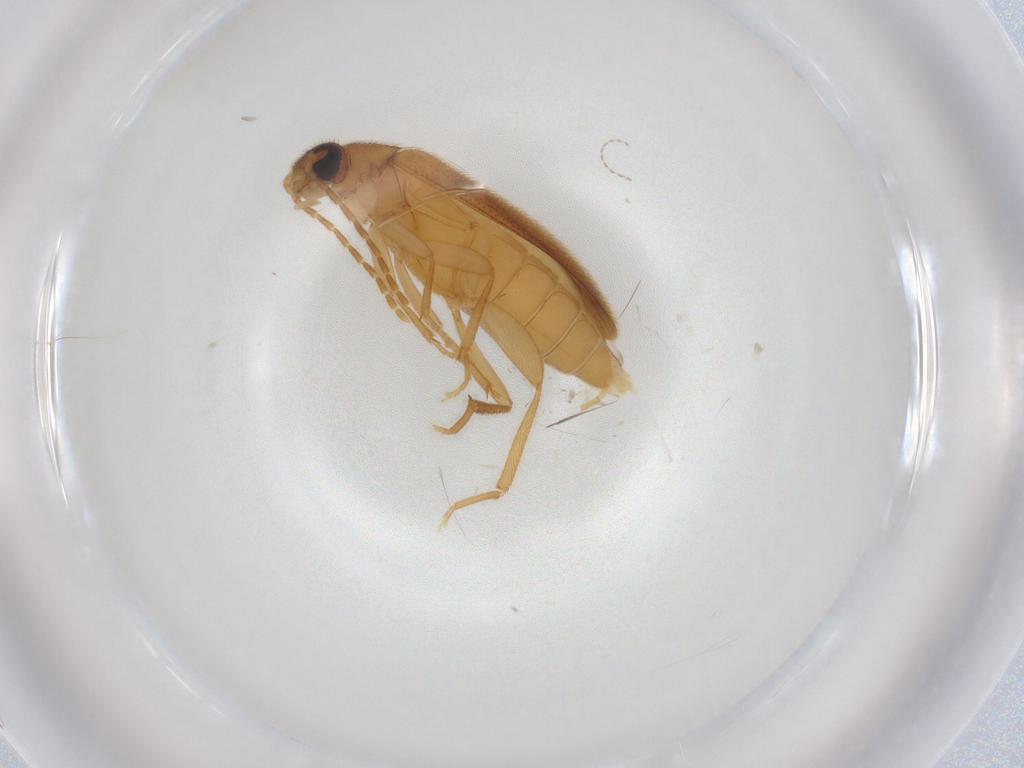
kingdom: Animalia
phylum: Arthropoda
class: Insecta
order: Coleoptera
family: Scraptiidae
